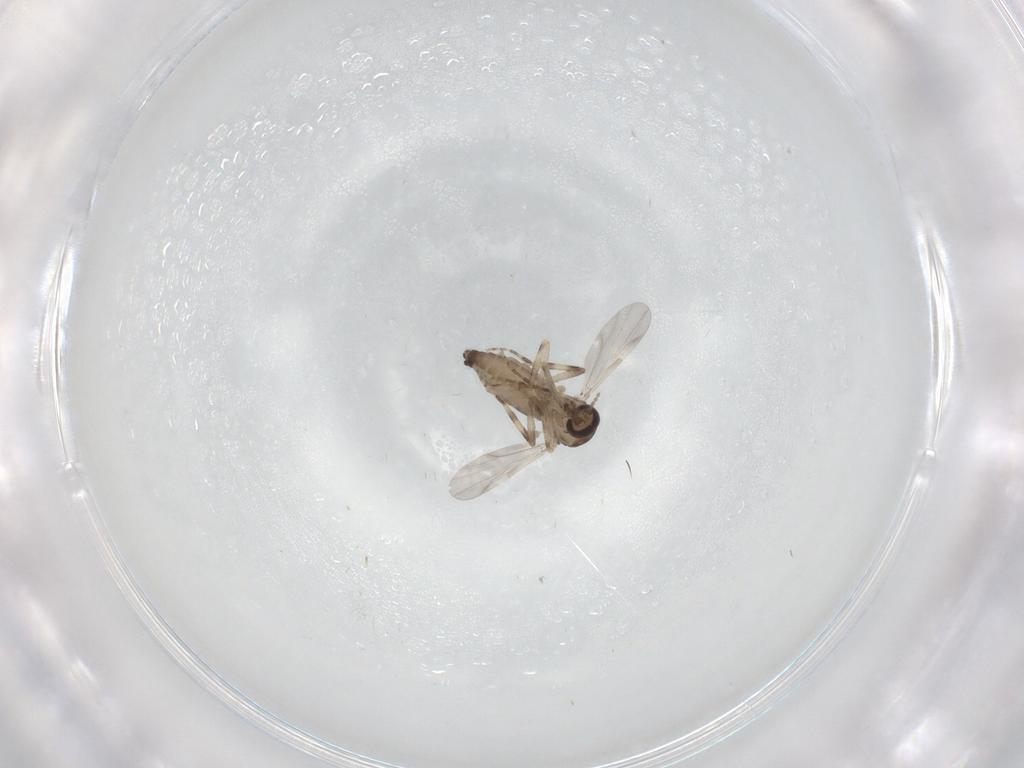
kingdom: Animalia
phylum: Arthropoda
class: Insecta
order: Diptera
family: Ceratopogonidae
